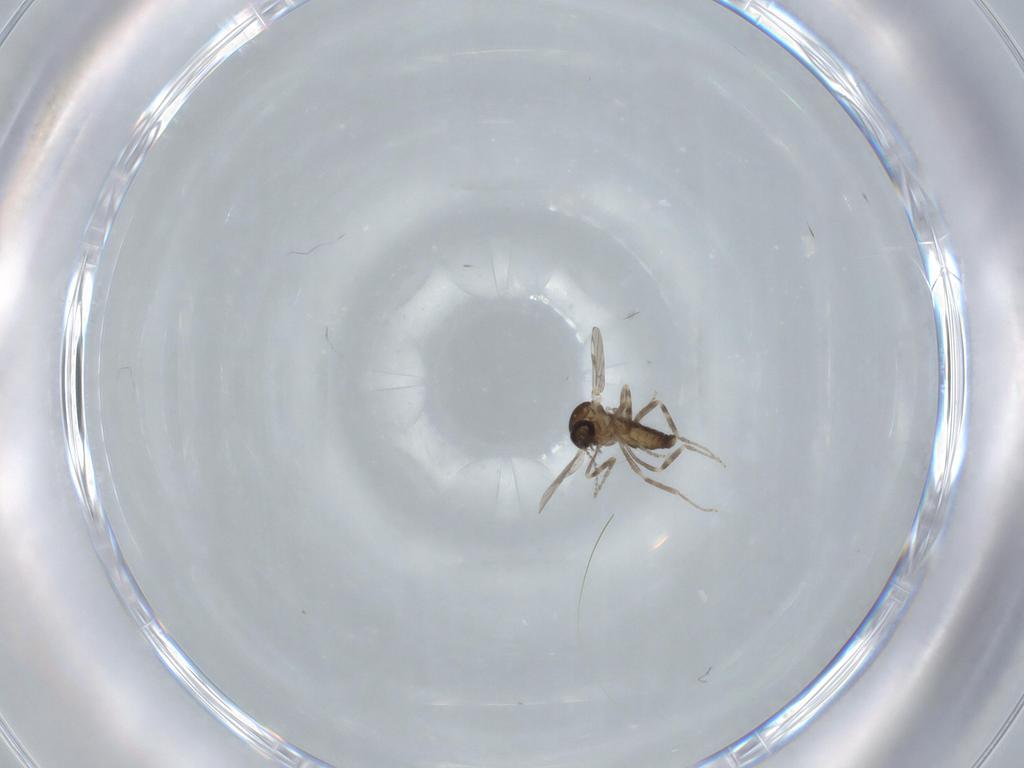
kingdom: Animalia
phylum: Arthropoda
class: Insecta
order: Diptera
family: Ceratopogonidae
